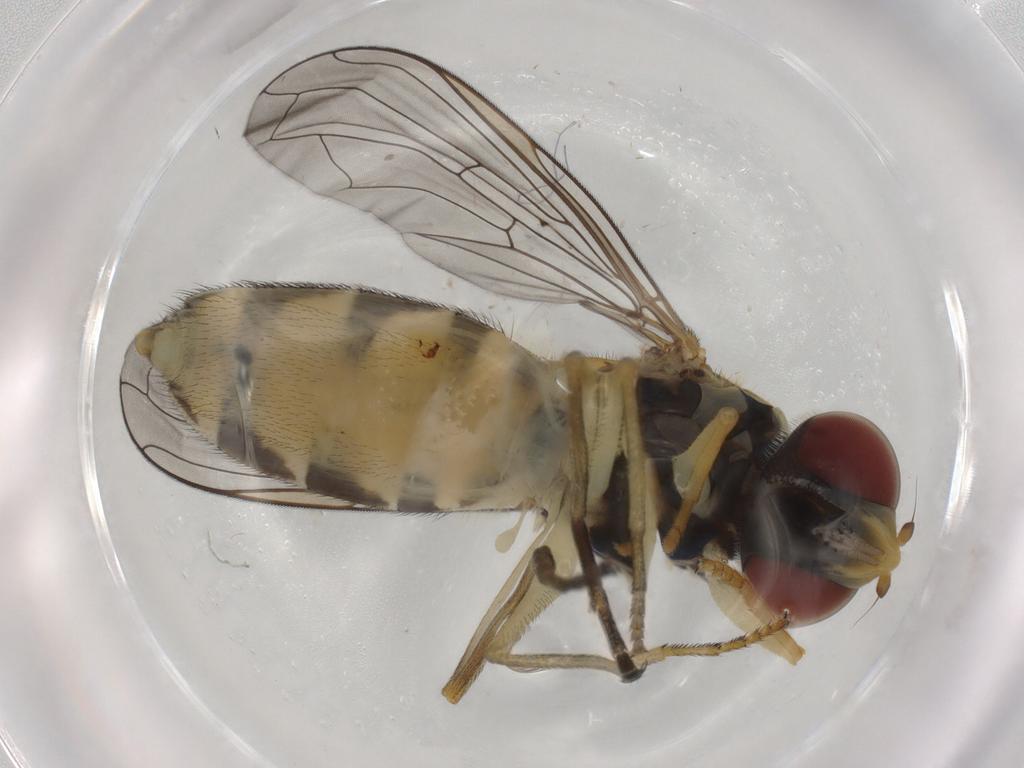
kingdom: Animalia
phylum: Arthropoda
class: Insecta
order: Diptera
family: Syrphidae
